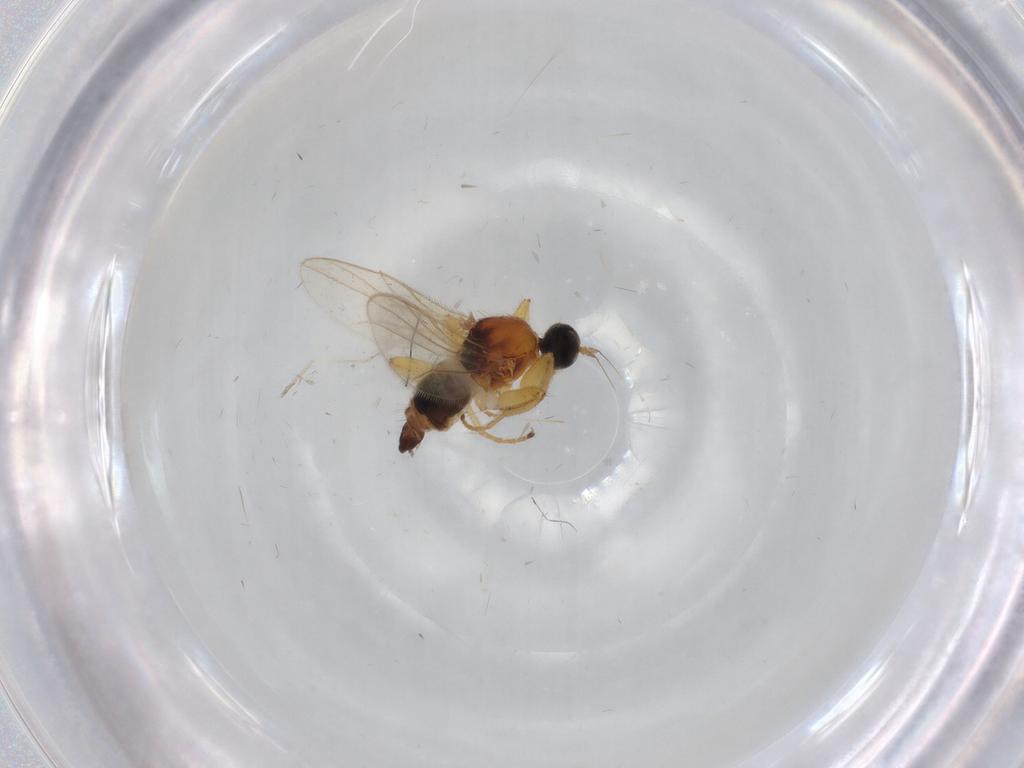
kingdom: Animalia
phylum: Arthropoda
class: Insecta
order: Diptera
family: Hybotidae
